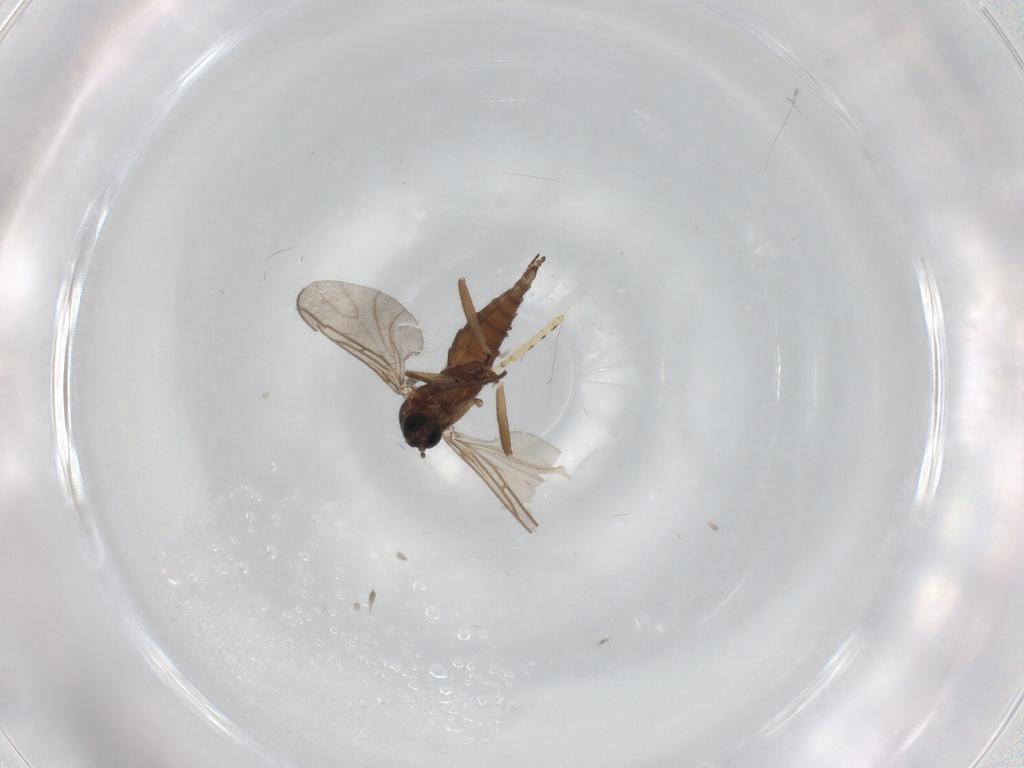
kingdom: Animalia
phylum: Arthropoda
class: Insecta
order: Diptera
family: Sciaridae
